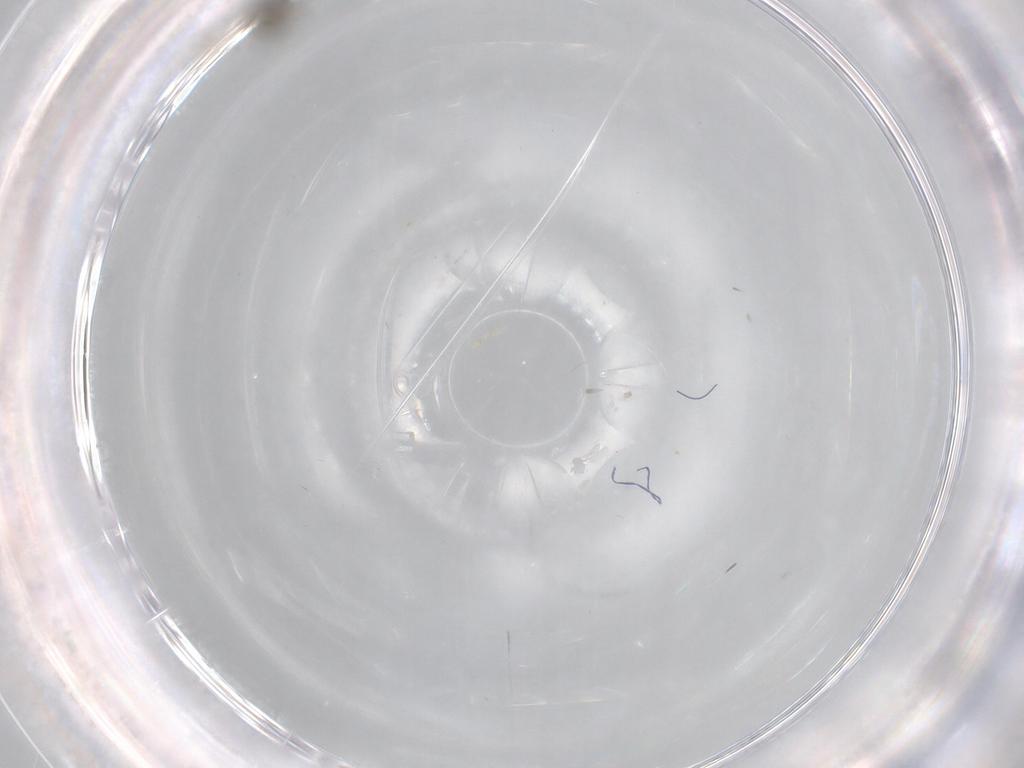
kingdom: Animalia
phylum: Arthropoda
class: Insecta
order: Diptera
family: Cecidomyiidae
